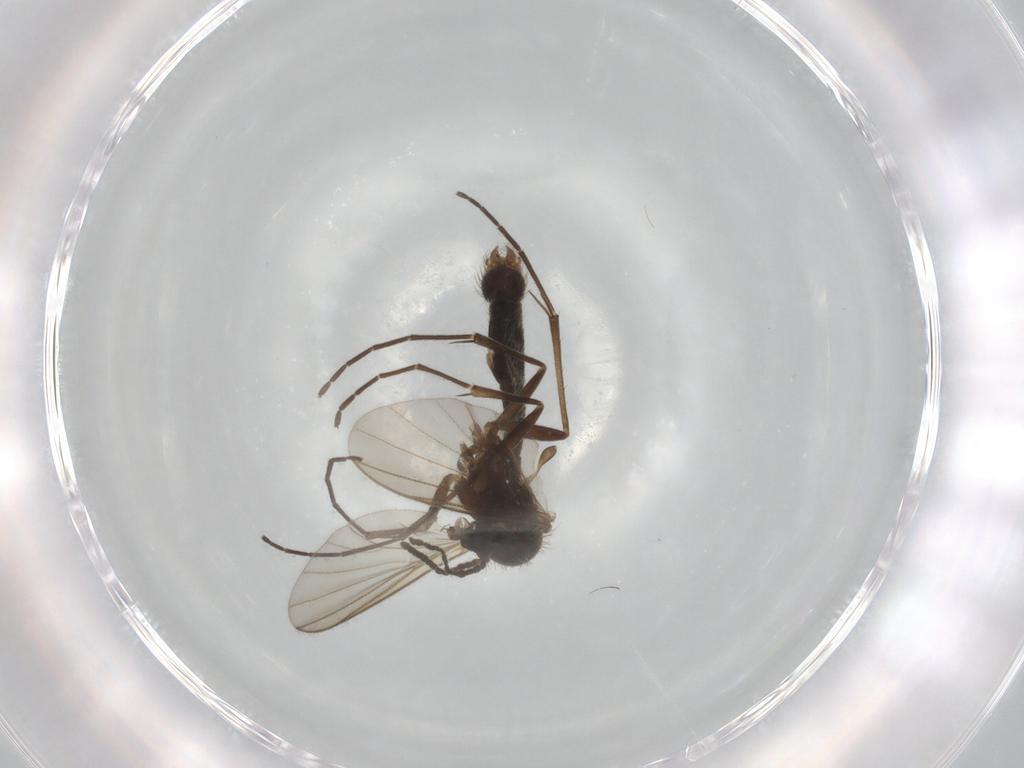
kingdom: Animalia
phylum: Arthropoda
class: Insecta
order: Diptera
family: Mycetophilidae
